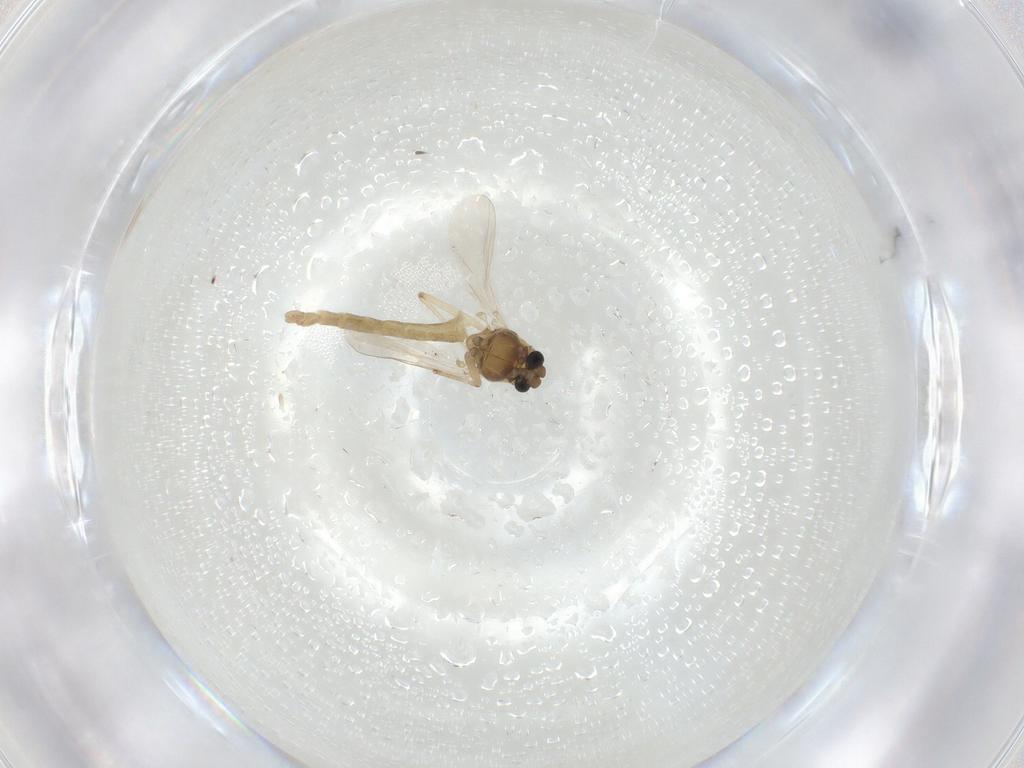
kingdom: Animalia
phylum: Arthropoda
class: Insecta
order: Diptera
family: Chironomidae
